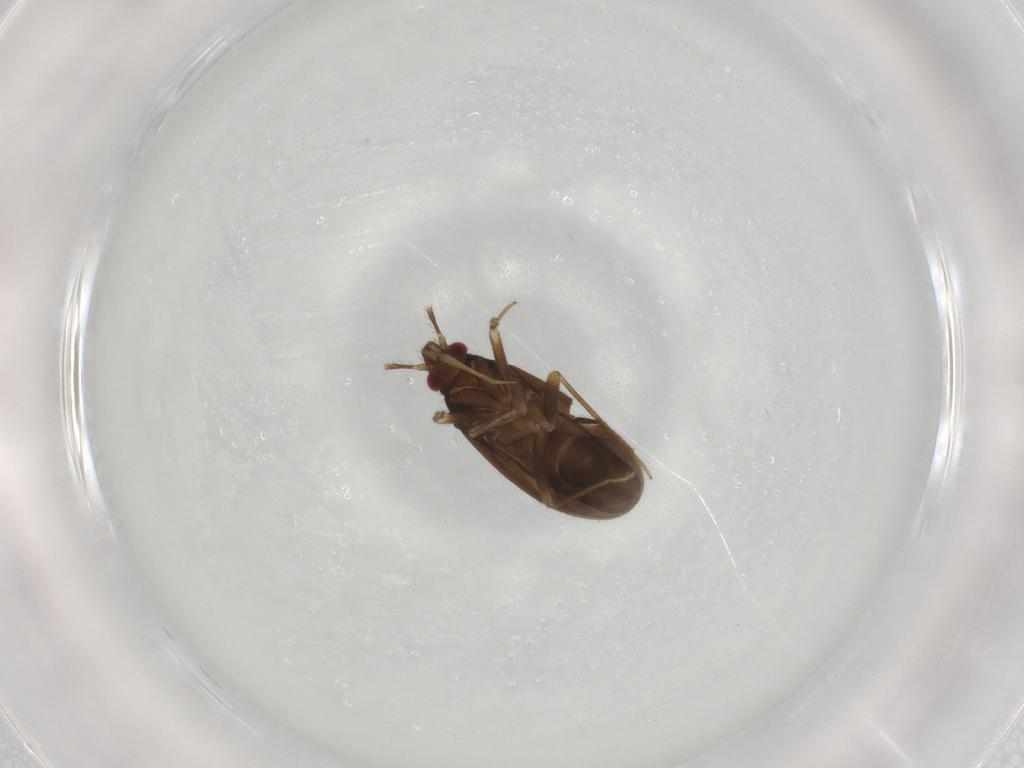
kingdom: Animalia
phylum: Arthropoda
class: Insecta
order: Hemiptera
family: Ceratocombidae
